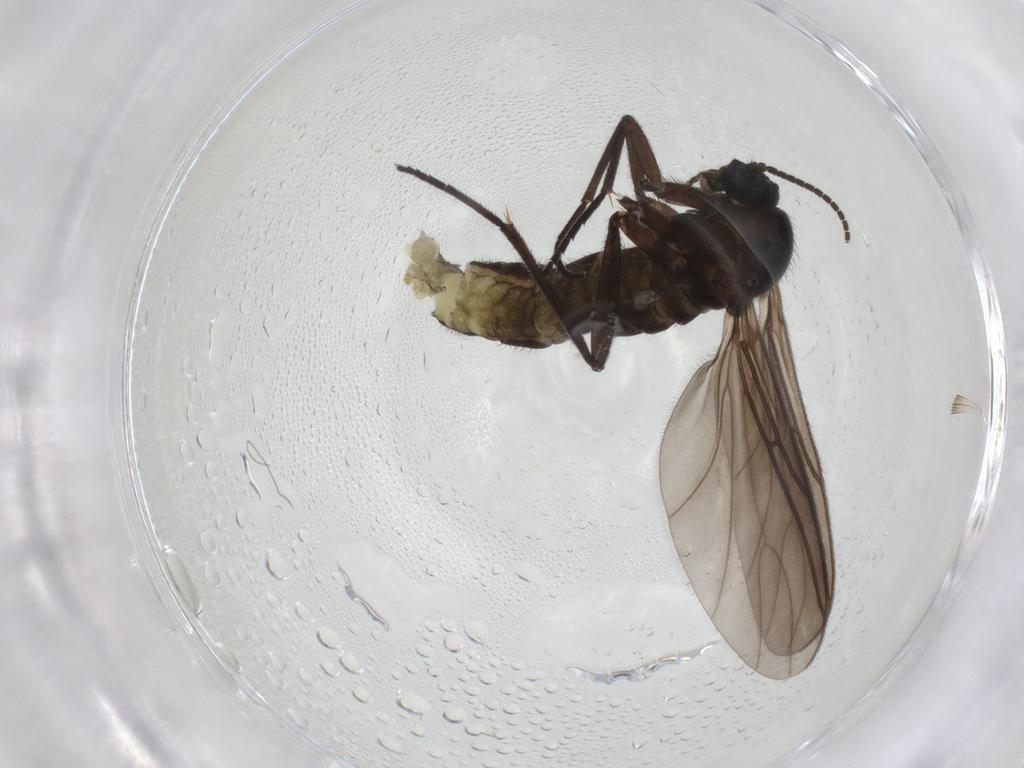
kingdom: Animalia
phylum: Arthropoda
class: Insecta
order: Diptera
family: Sciaridae
